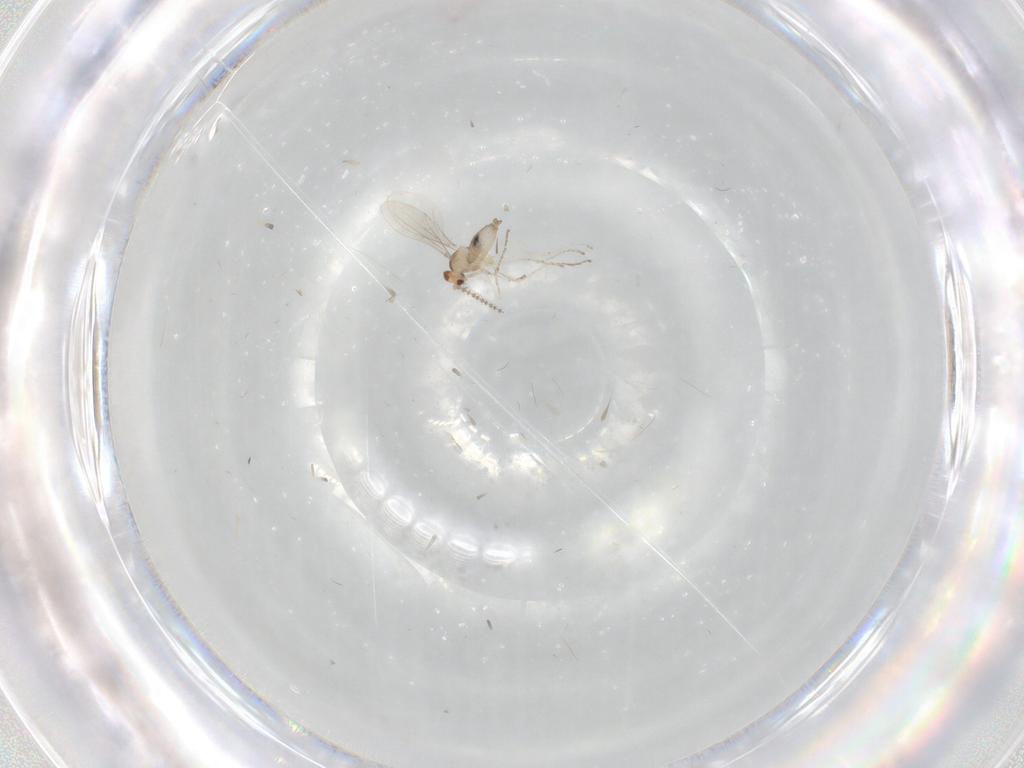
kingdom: Animalia
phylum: Arthropoda
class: Insecta
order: Diptera
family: Cecidomyiidae
